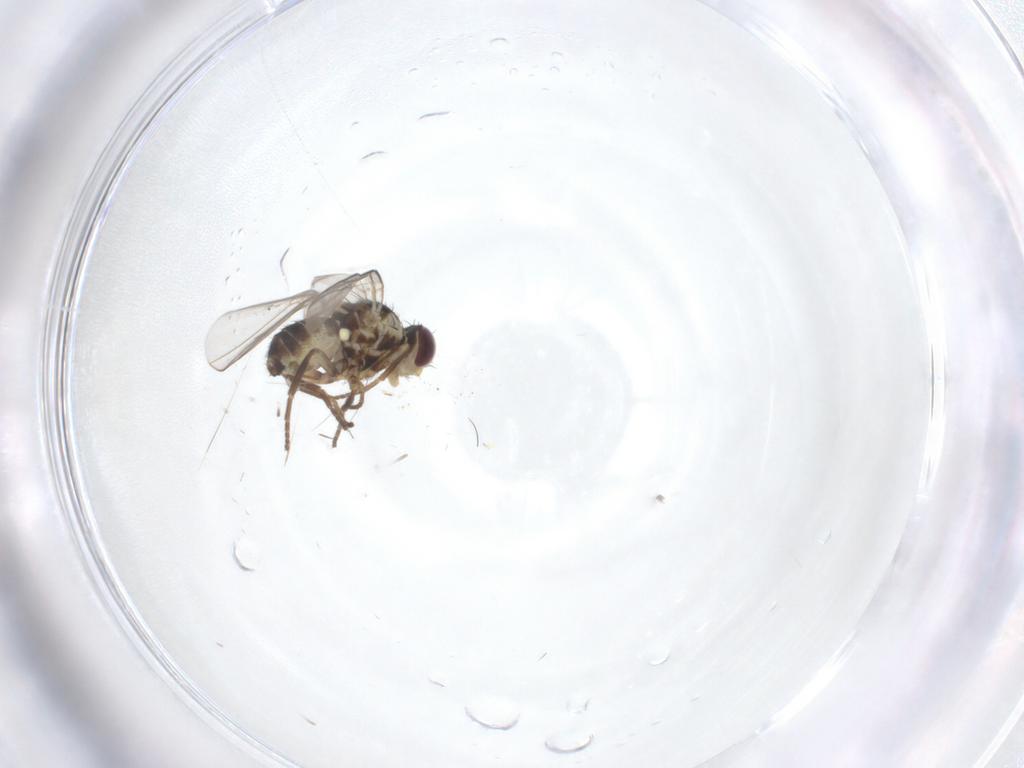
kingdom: Animalia
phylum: Arthropoda
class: Insecta
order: Diptera
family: Agromyzidae
